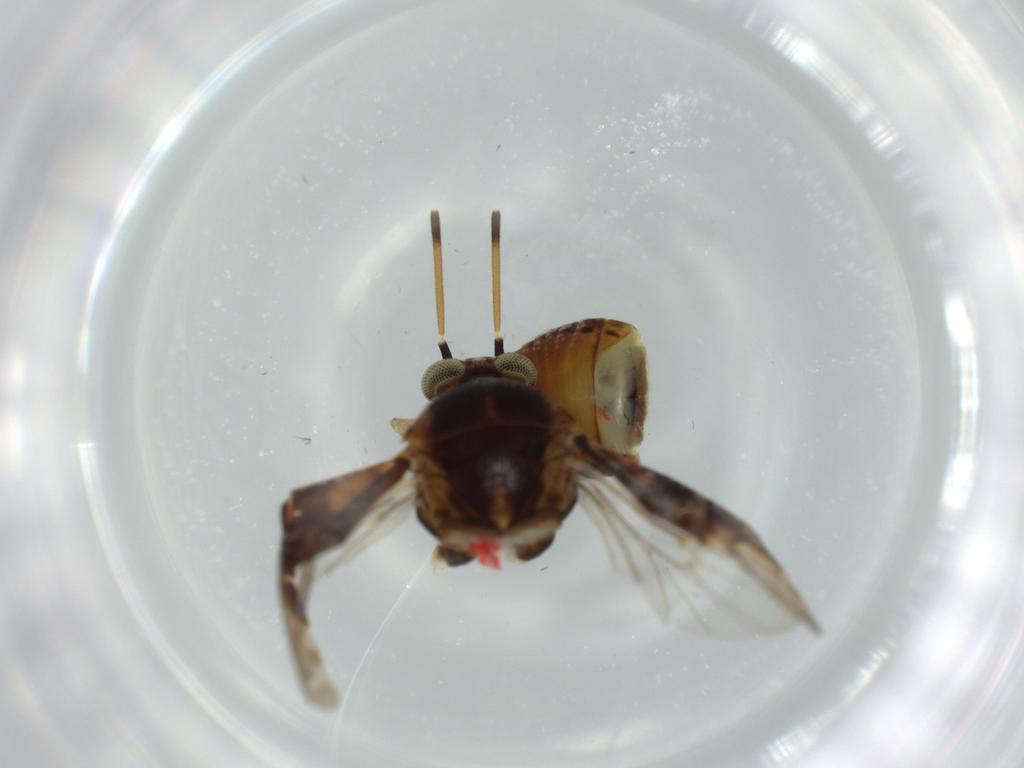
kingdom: Animalia
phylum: Arthropoda
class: Insecta
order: Hemiptera
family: Miridae
